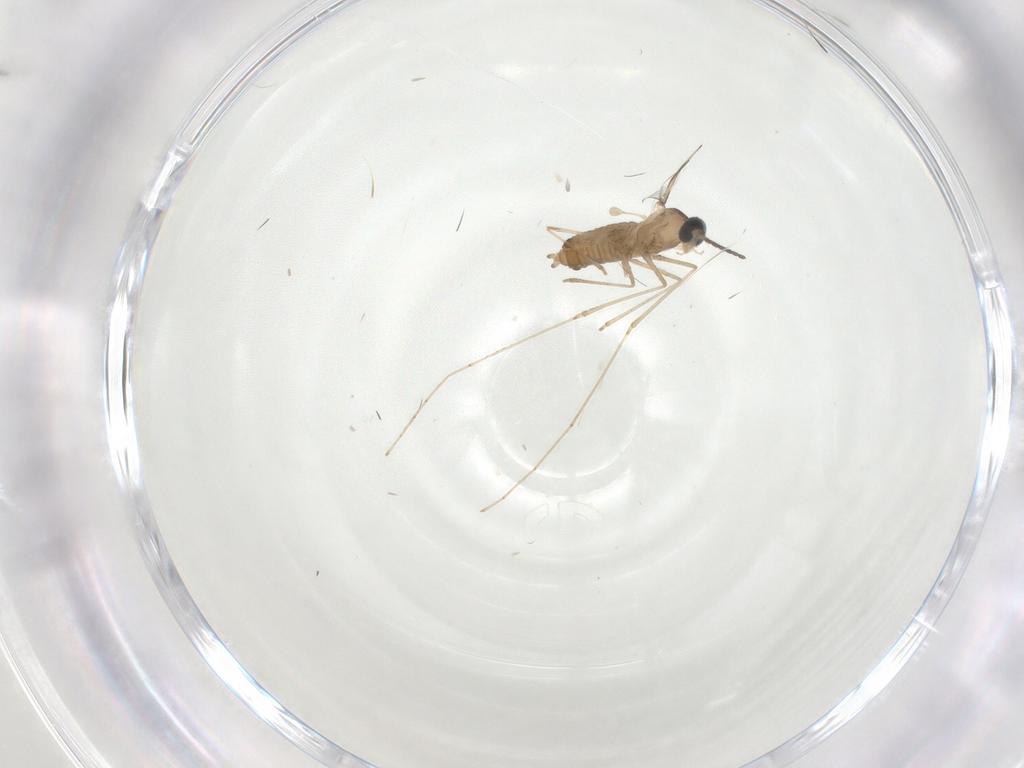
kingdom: Animalia
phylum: Arthropoda
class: Insecta
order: Diptera
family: Cecidomyiidae
